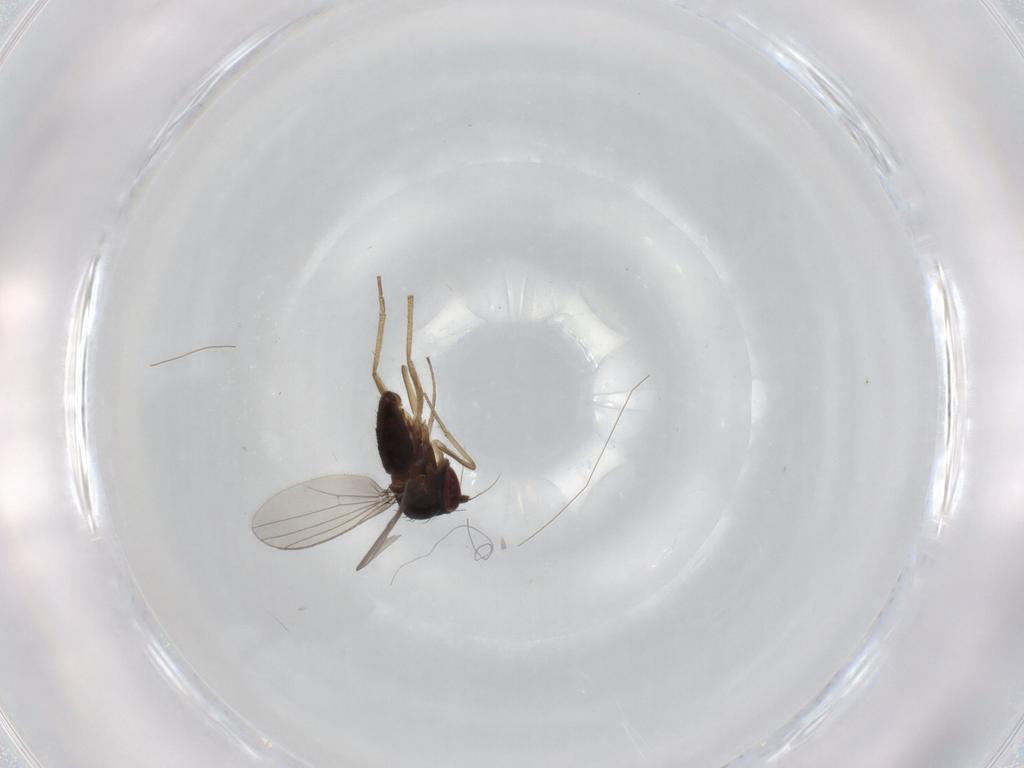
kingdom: Animalia
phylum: Arthropoda
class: Insecta
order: Diptera
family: Dolichopodidae
